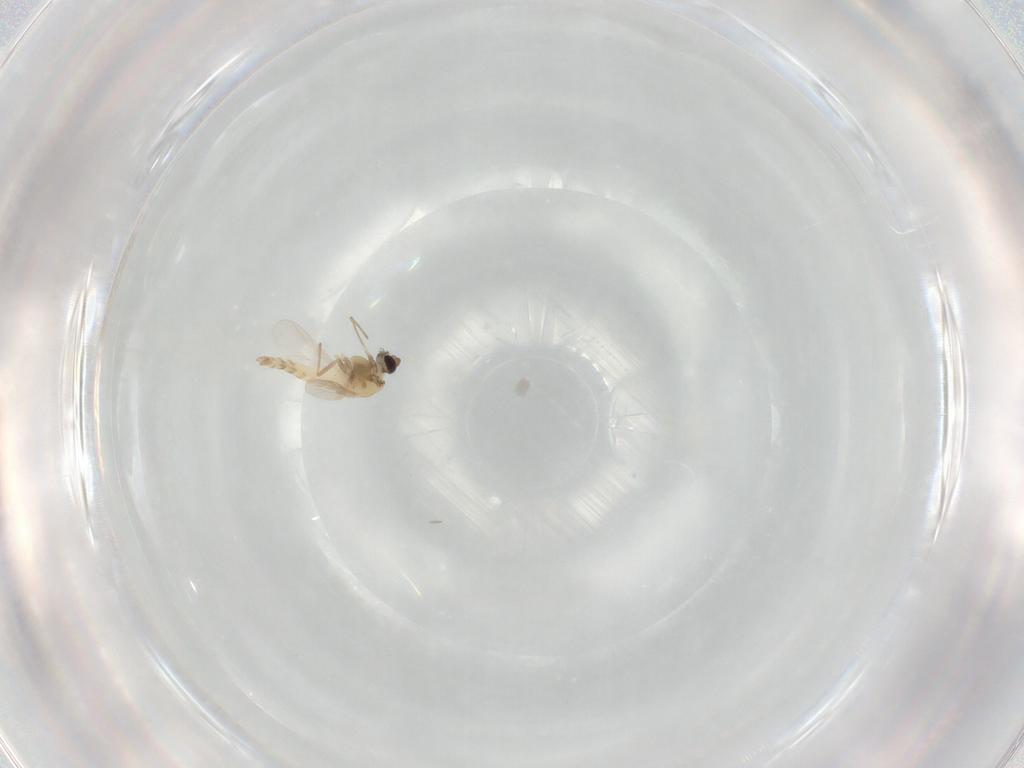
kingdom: Animalia
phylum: Arthropoda
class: Insecta
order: Diptera
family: Chironomidae
